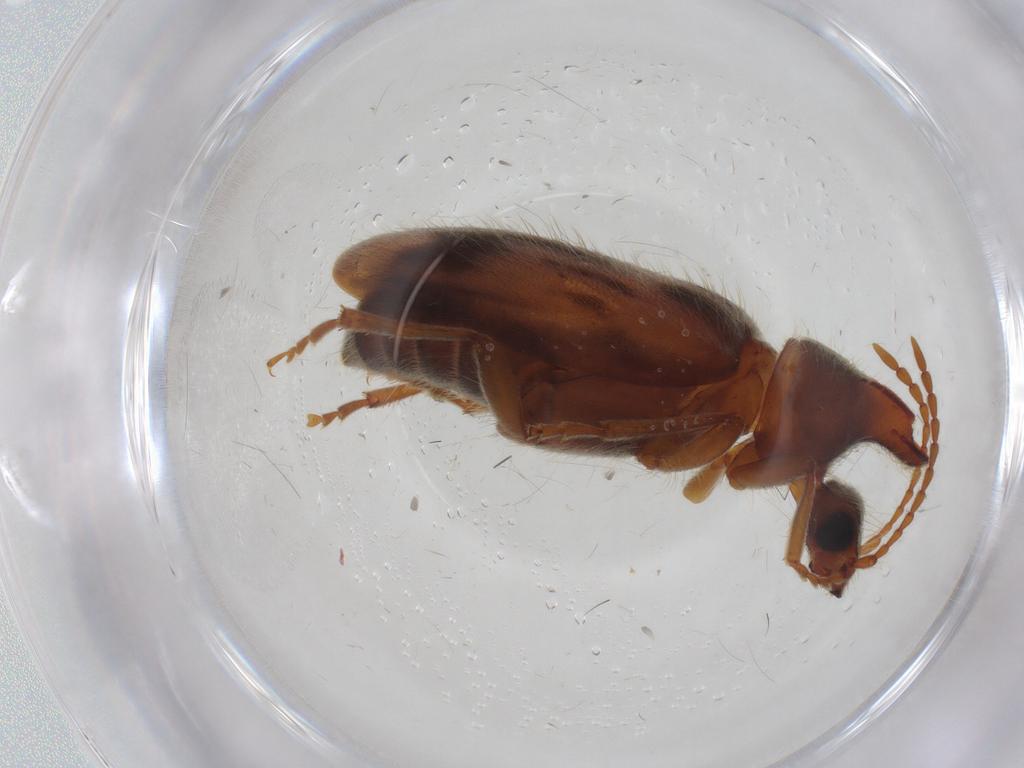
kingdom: Animalia
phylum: Arthropoda
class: Insecta
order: Coleoptera
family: Anthicidae
